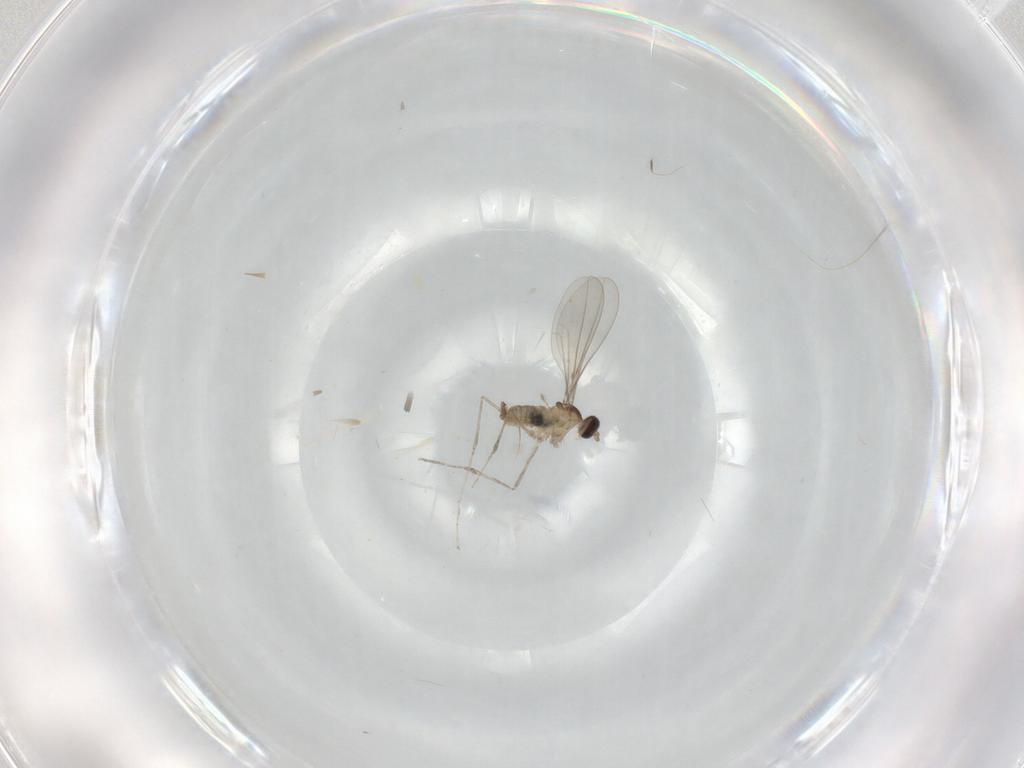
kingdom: Animalia
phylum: Arthropoda
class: Insecta
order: Diptera
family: Cecidomyiidae
